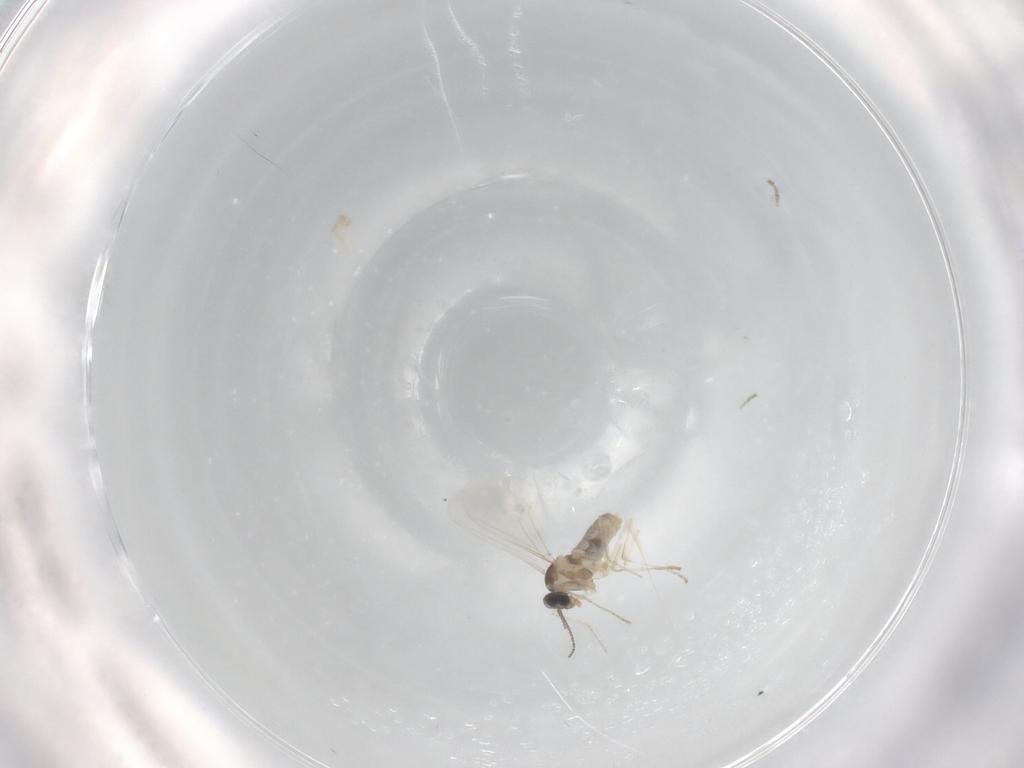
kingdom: Animalia
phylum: Arthropoda
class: Insecta
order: Diptera
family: Cecidomyiidae
